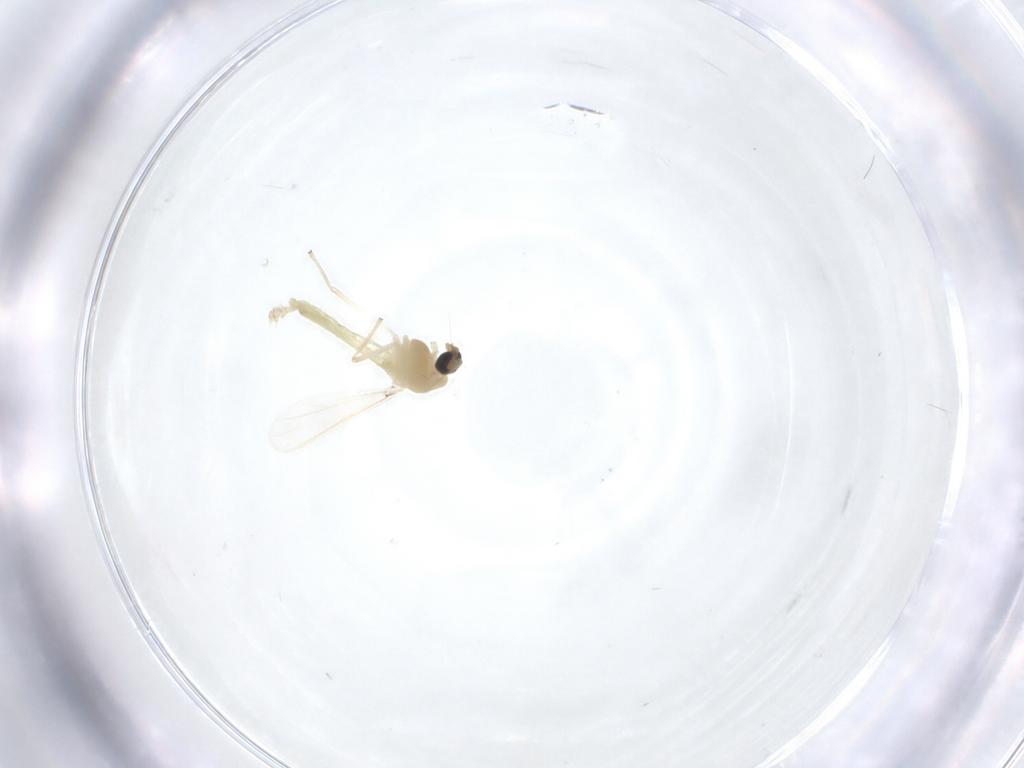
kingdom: Animalia
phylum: Arthropoda
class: Insecta
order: Diptera
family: Chironomidae
